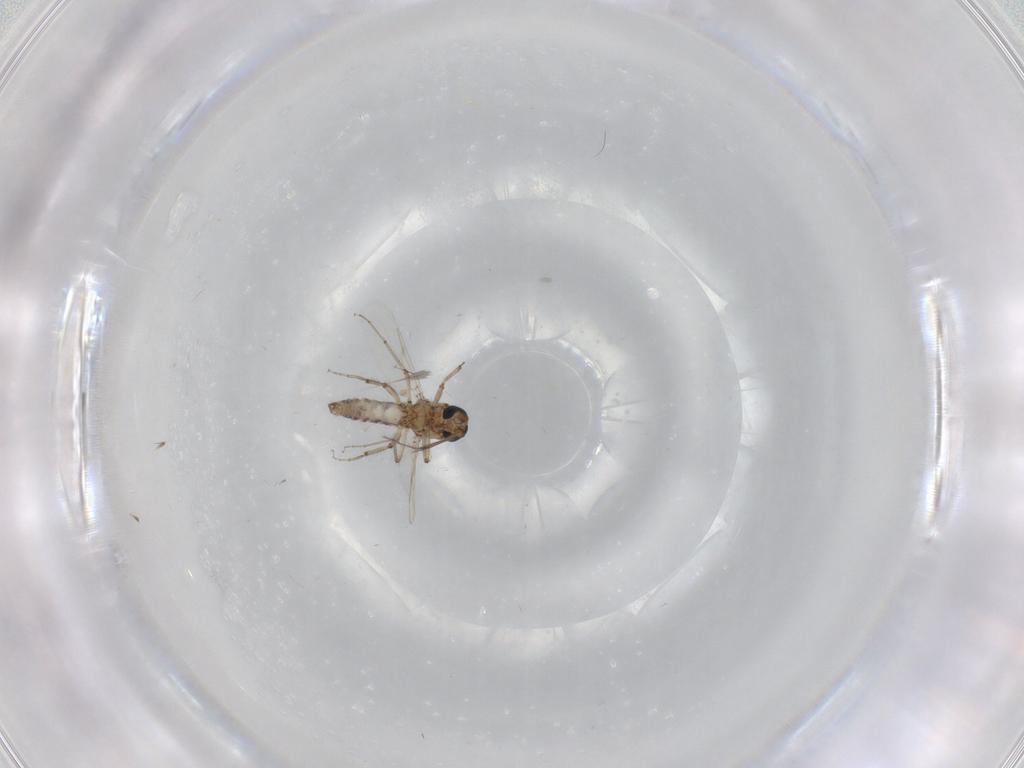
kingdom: Animalia
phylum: Arthropoda
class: Insecta
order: Diptera
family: Ceratopogonidae
